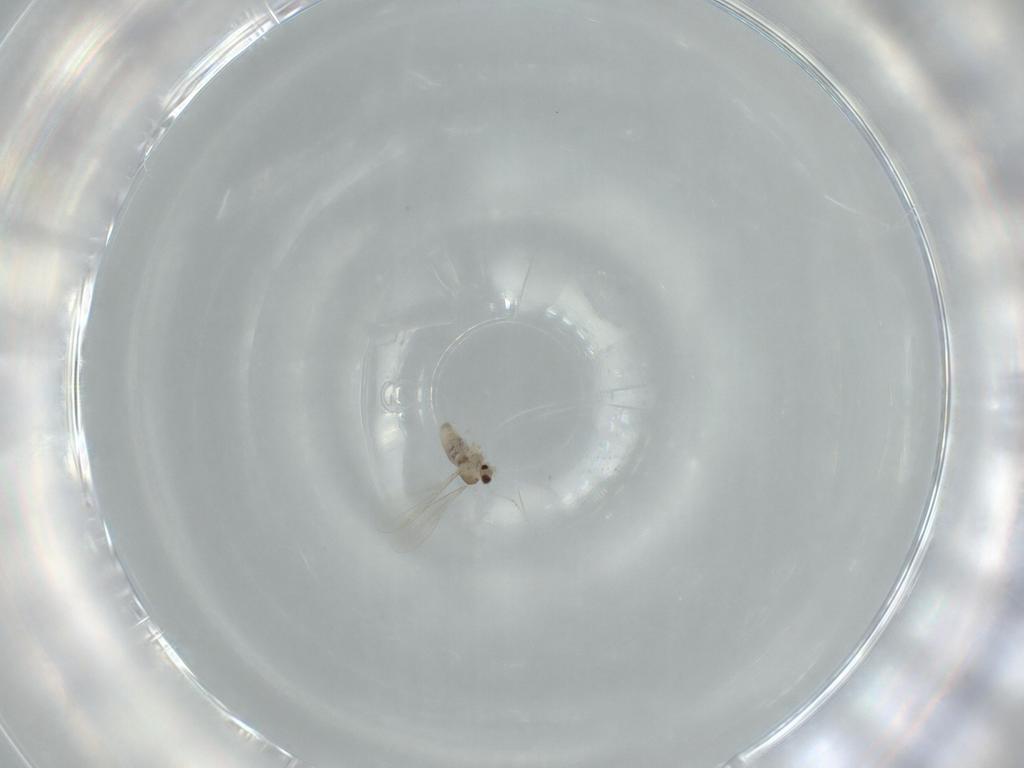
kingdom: Animalia
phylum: Arthropoda
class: Insecta
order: Diptera
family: Cecidomyiidae
